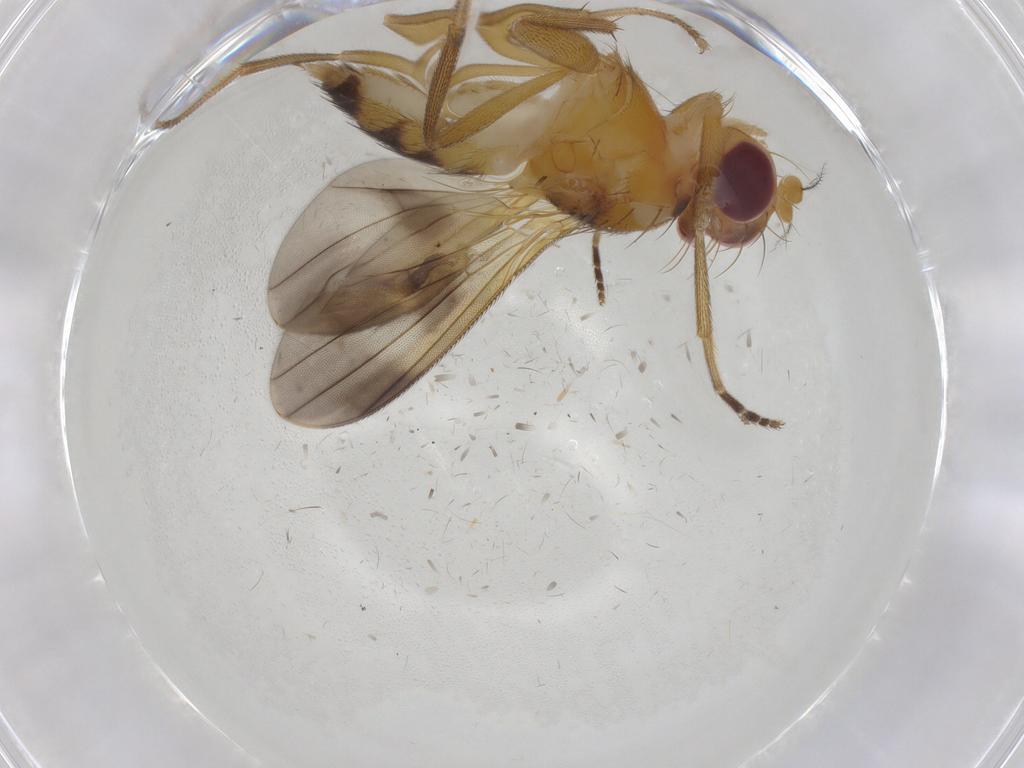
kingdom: Animalia
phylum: Arthropoda
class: Insecta
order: Diptera
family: Clusiidae
